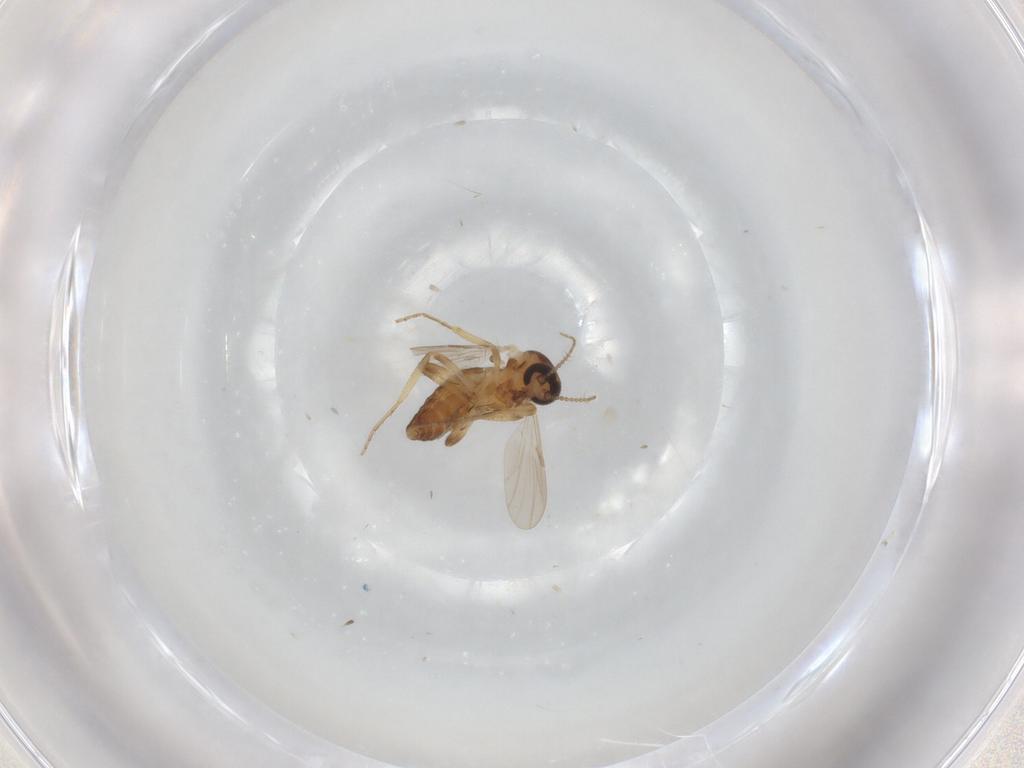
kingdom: Animalia
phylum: Arthropoda
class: Insecta
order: Diptera
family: Ceratopogonidae
